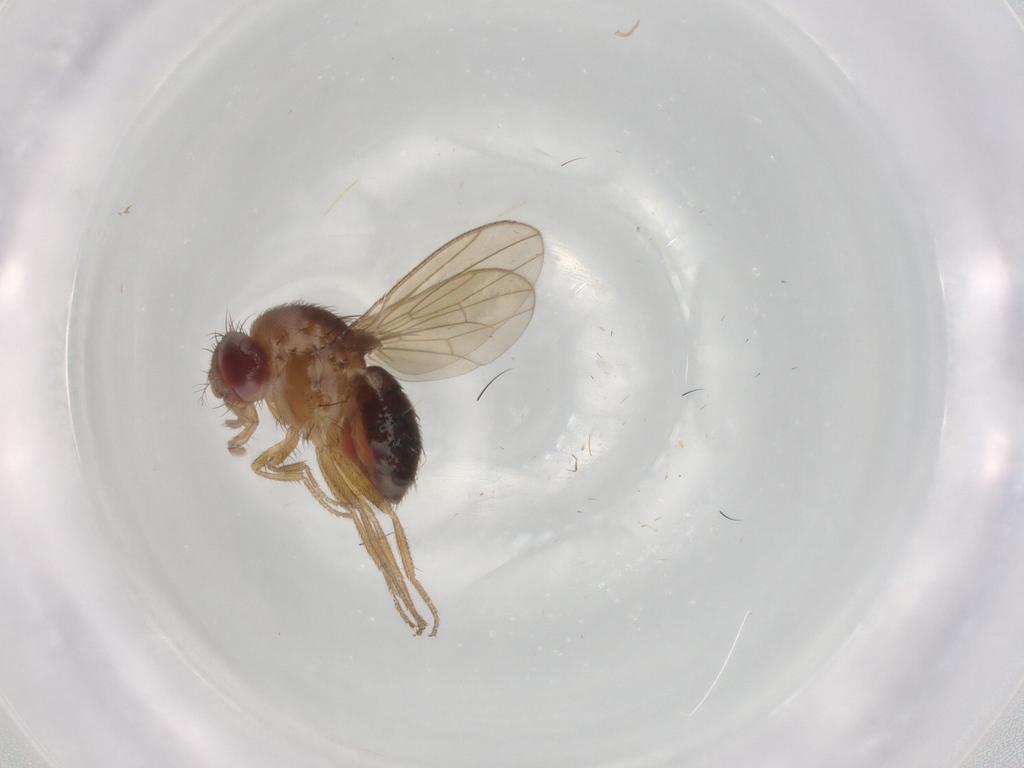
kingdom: Animalia
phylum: Arthropoda
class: Insecta
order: Diptera
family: Drosophilidae
